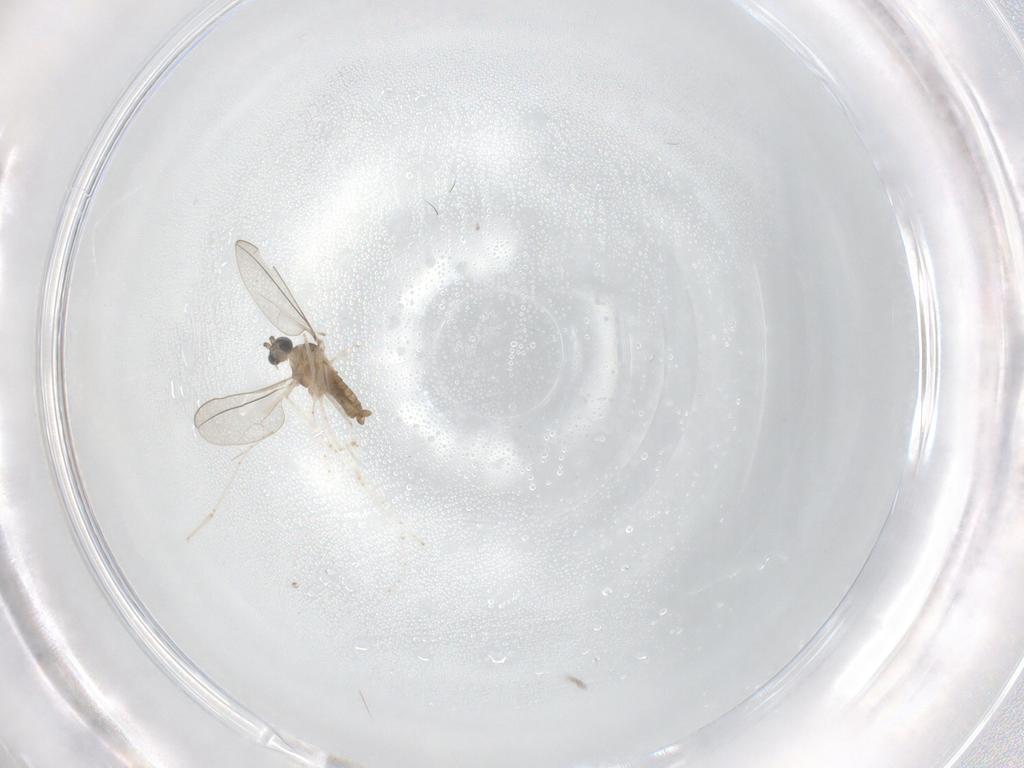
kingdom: Animalia
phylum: Arthropoda
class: Insecta
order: Diptera
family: Cecidomyiidae
